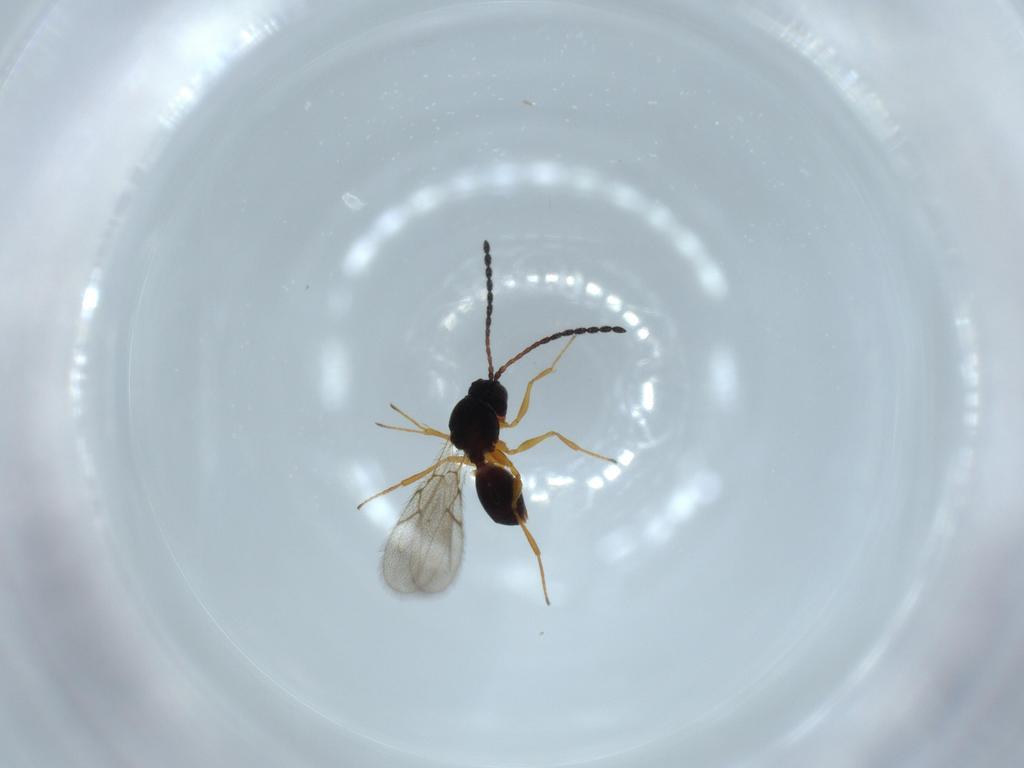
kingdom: Animalia
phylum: Arthropoda
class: Insecta
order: Hymenoptera
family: Figitidae
